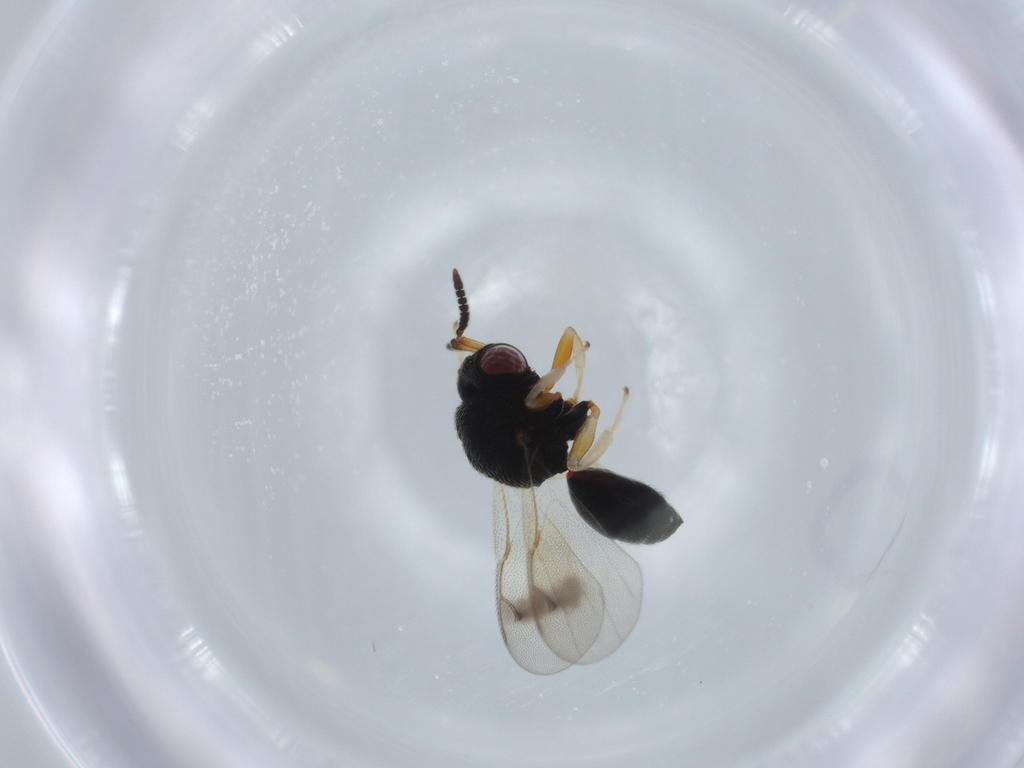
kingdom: Animalia
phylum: Arthropoda
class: Insecta
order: Hymenoptera
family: Eurytomidae
